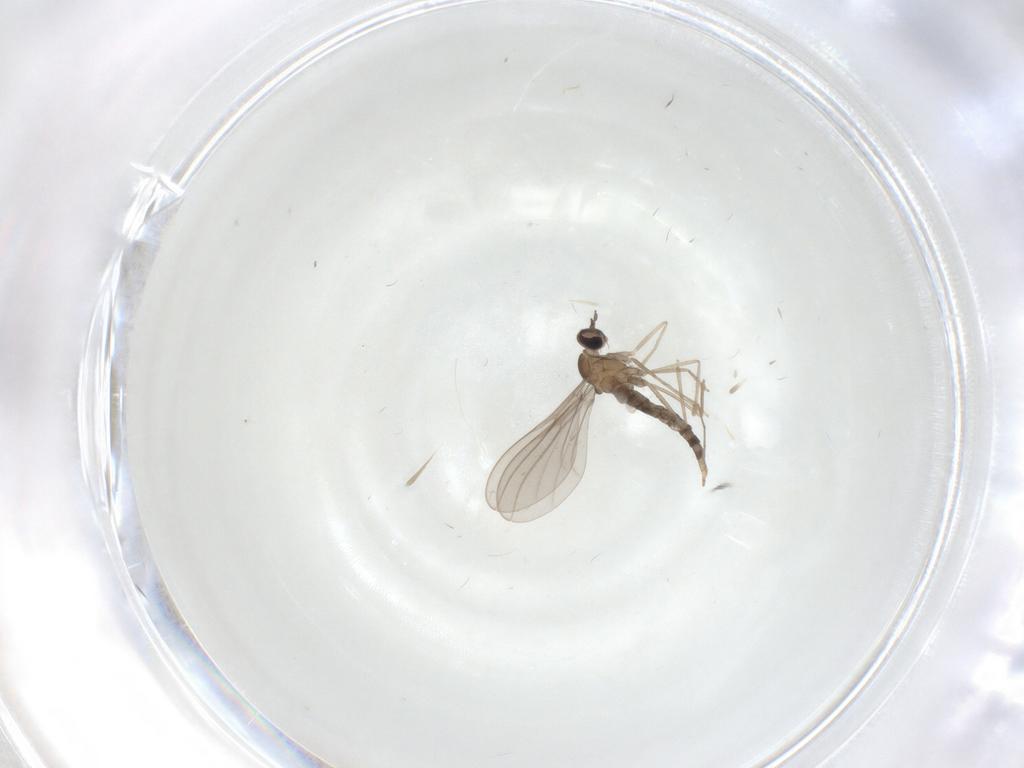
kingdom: Animalia
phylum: Arthropoda
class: Insecta
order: Diptera
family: Cecidomyiidae
